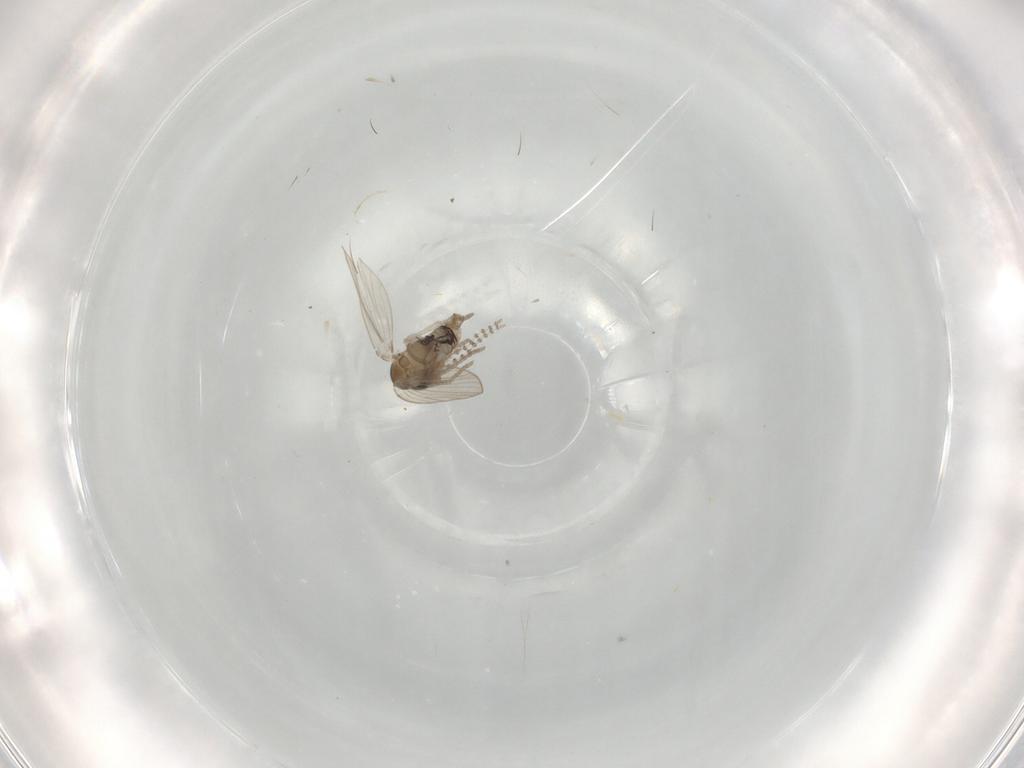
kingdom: Animalia
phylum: Arthropoda
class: Insecta
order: Diptera
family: Psychodidae
